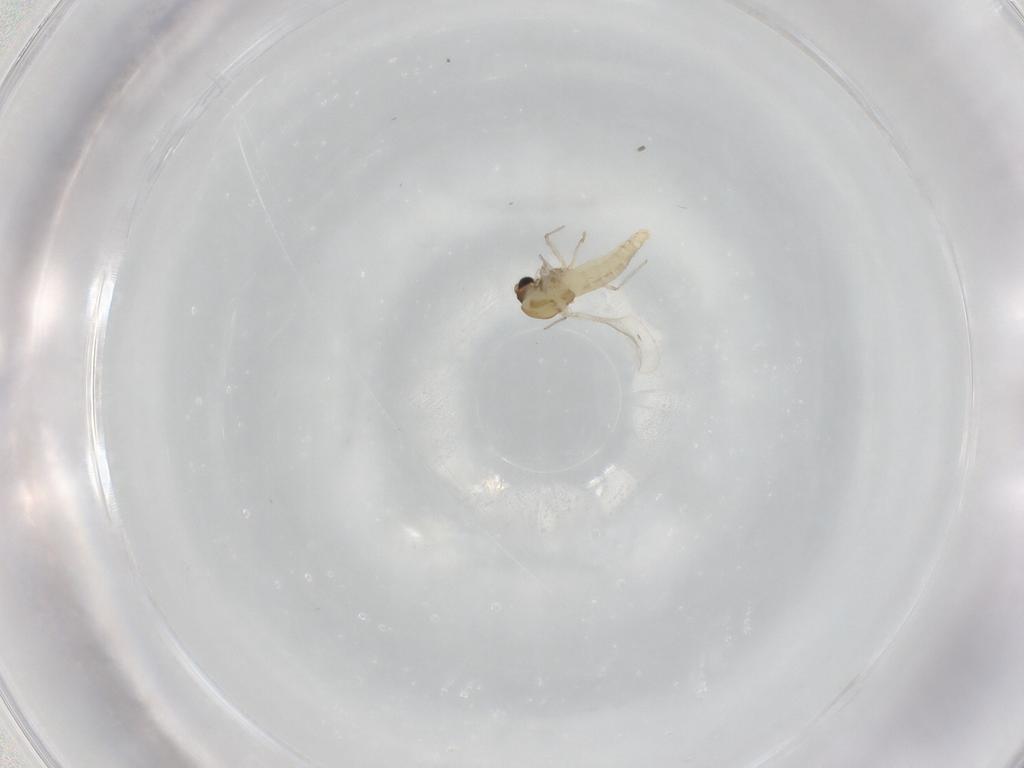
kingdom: Animalia
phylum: Arthropoda
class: Insecta
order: Diptera
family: Chironomidae
